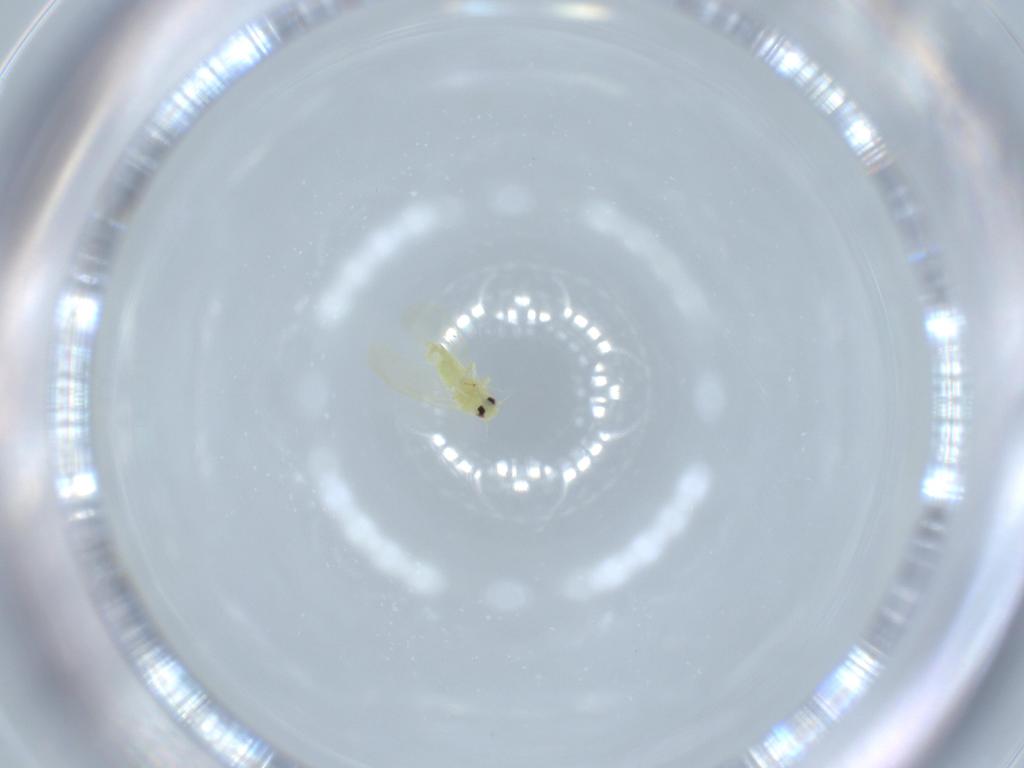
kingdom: Animalia
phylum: Arthropoda
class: Insecta
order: Hemiptera
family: Aleyrodidae
